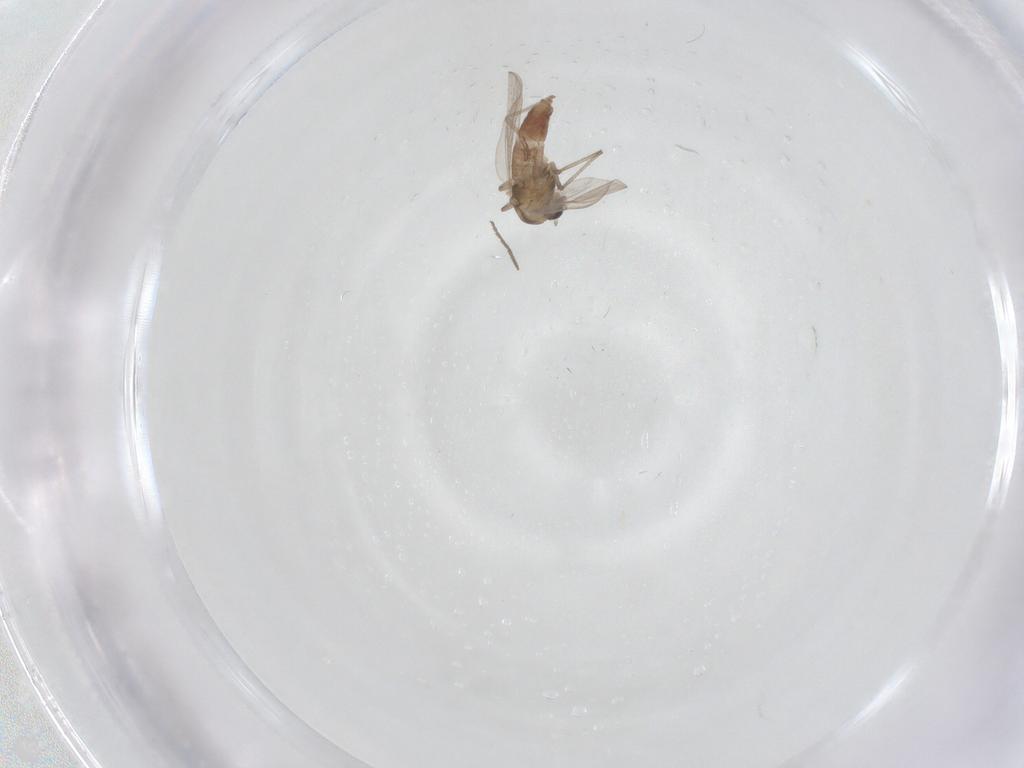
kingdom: Animalia
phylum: Arthropoda
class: Insecta
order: Diptera
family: Chironomidae
